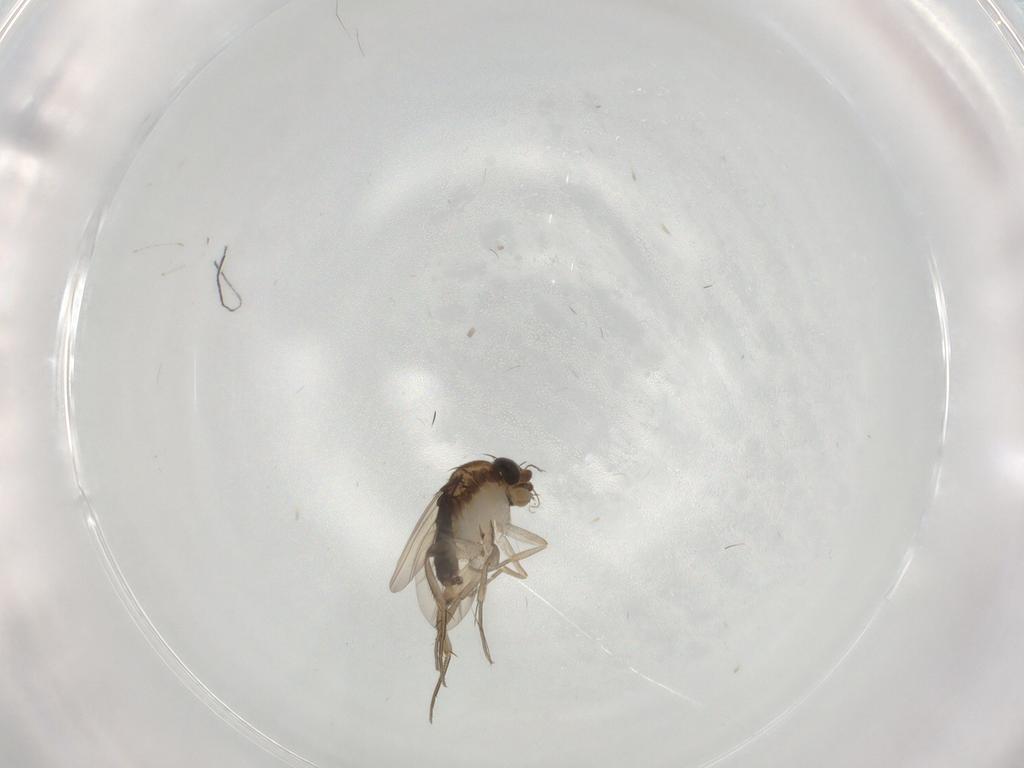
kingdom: Animalia
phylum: Arthropoda
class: Insecta
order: Diptera
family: Phoridae
